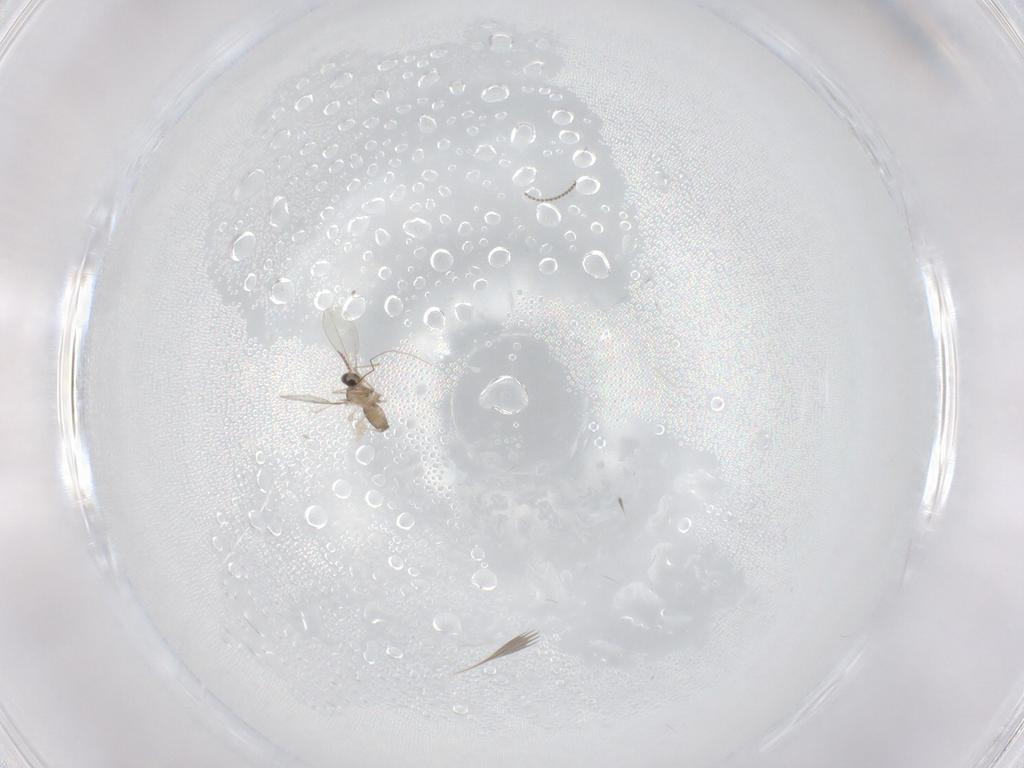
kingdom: Animalia
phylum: Arthropoda
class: Insecta
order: Diptera
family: Cecidomyiidae
